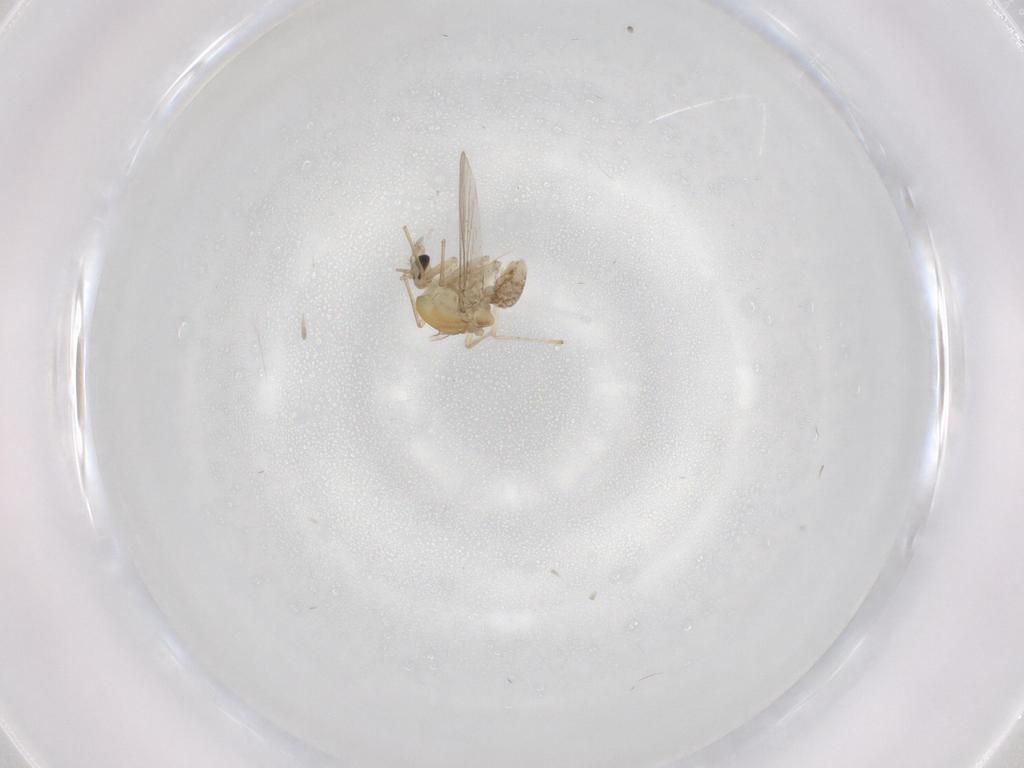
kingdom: Animalia
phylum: Arthropoda
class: Insecta
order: Diptera
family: Chironomidae
